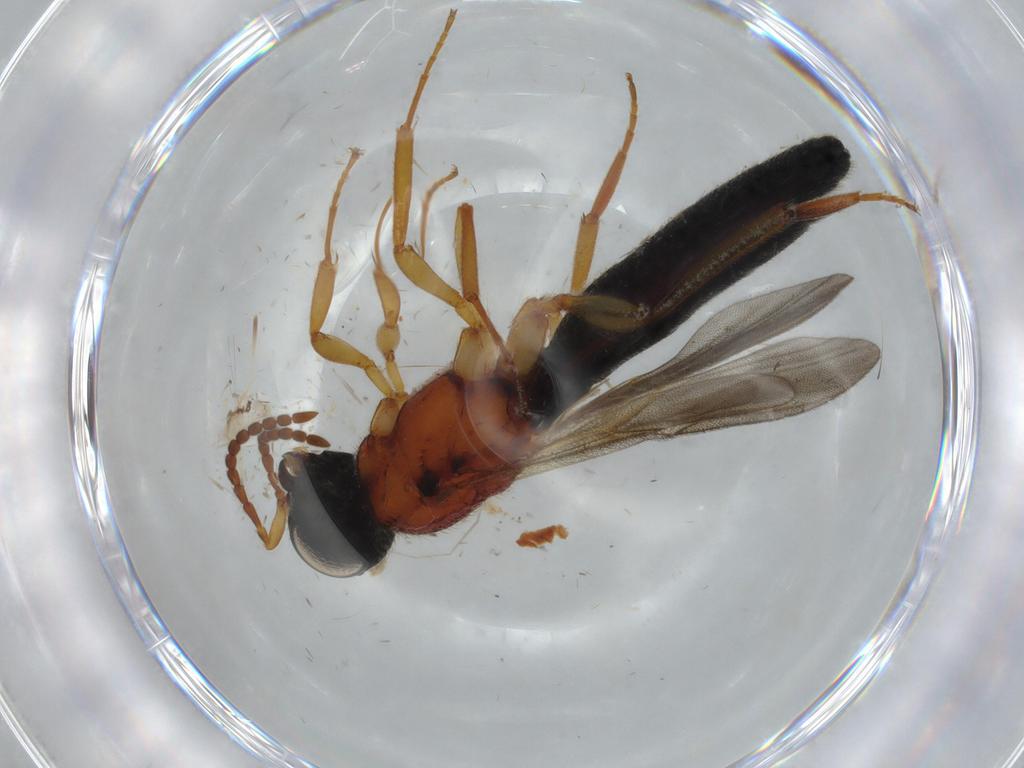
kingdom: Animalia
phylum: Arthropoda
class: Insecta
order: Hymenoptera
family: Scelionidae
